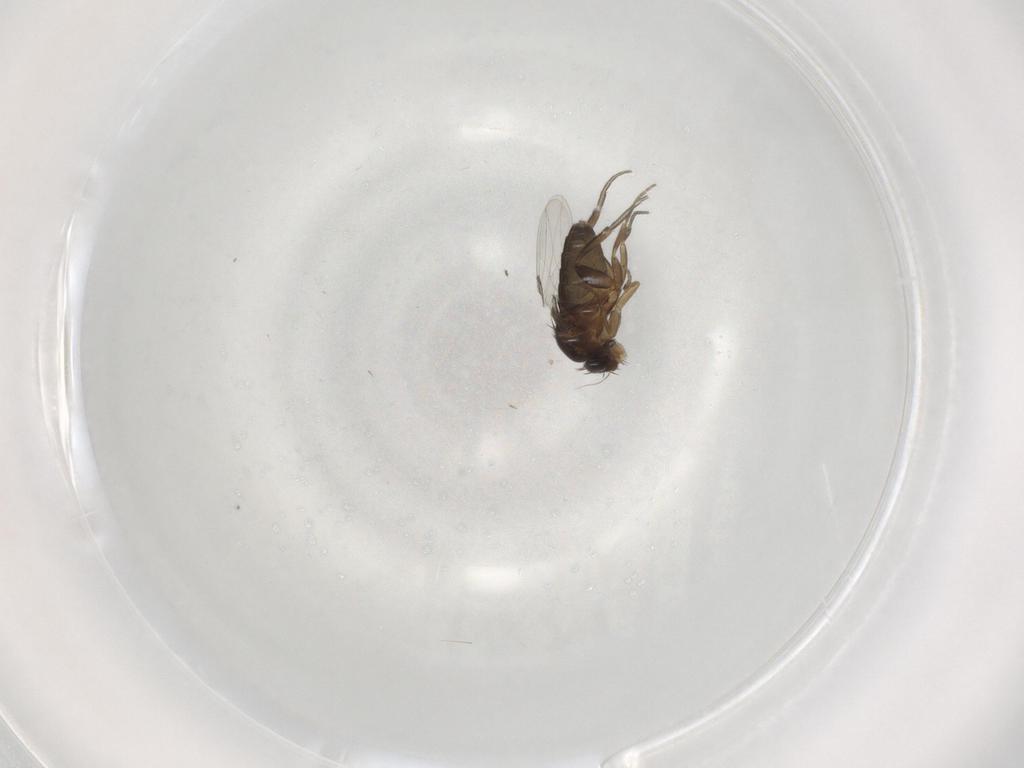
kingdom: Animalia
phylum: Arthropoda
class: Insecta
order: Diptera
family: Phoridae
